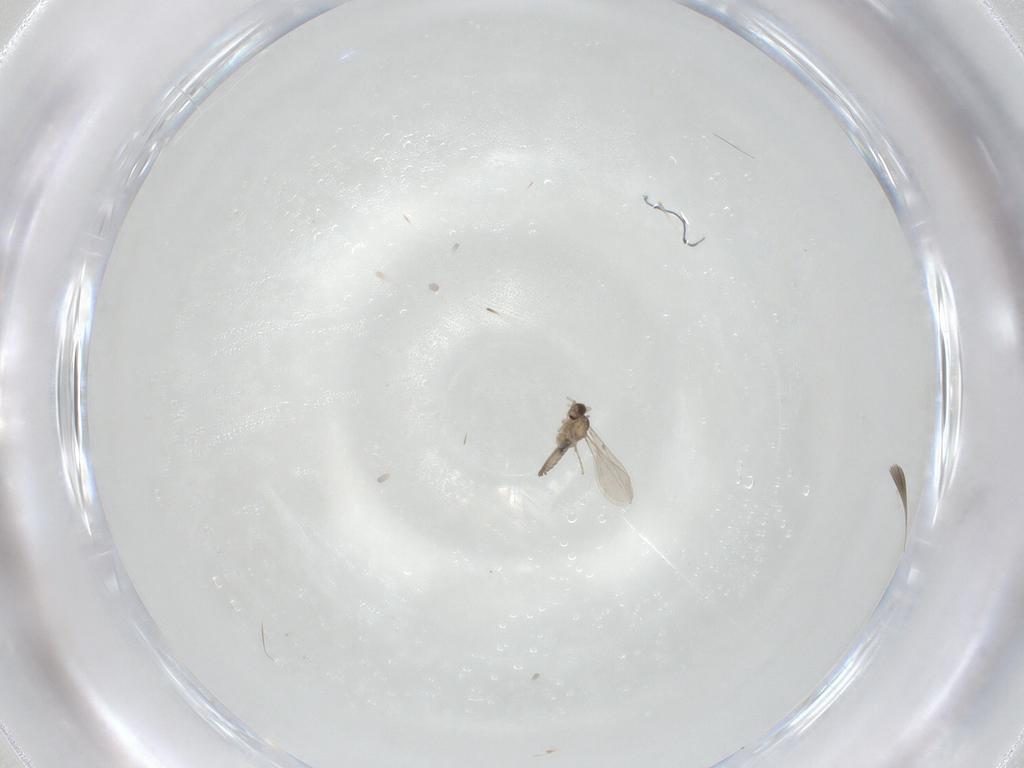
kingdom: Animalia
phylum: Arthropoda
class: Insecta
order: Diptera
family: Cecidomyiidae
